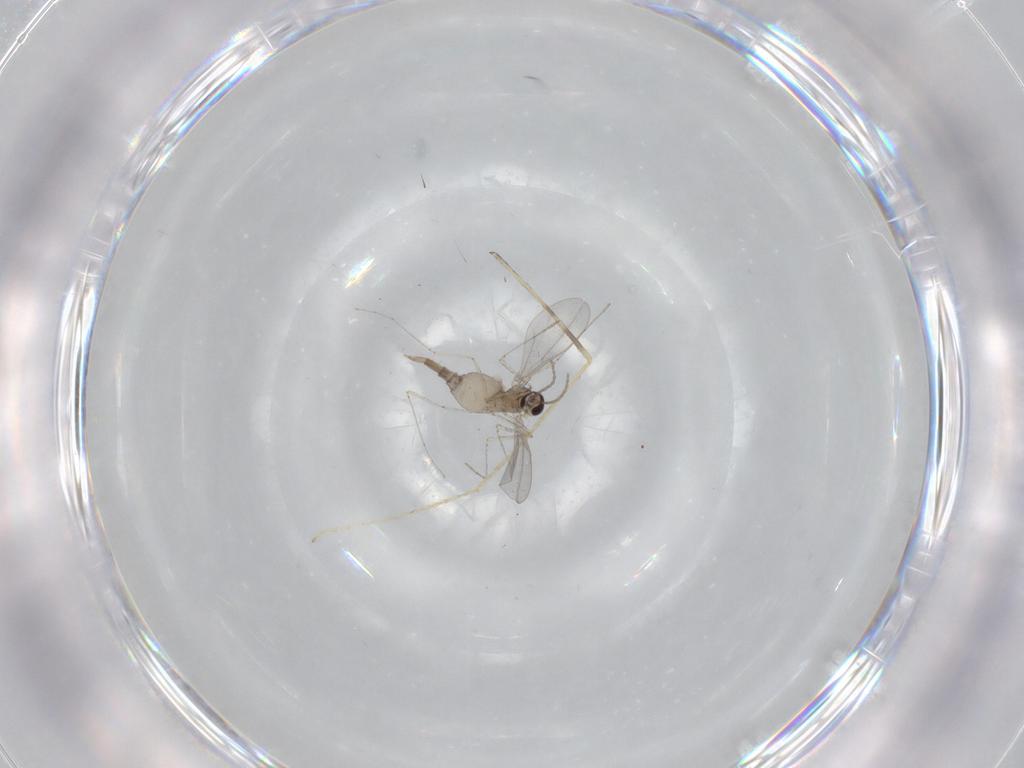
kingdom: Animalia
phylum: Arthropoda
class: Insecta
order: Diptera
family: Cecidomyiidae
